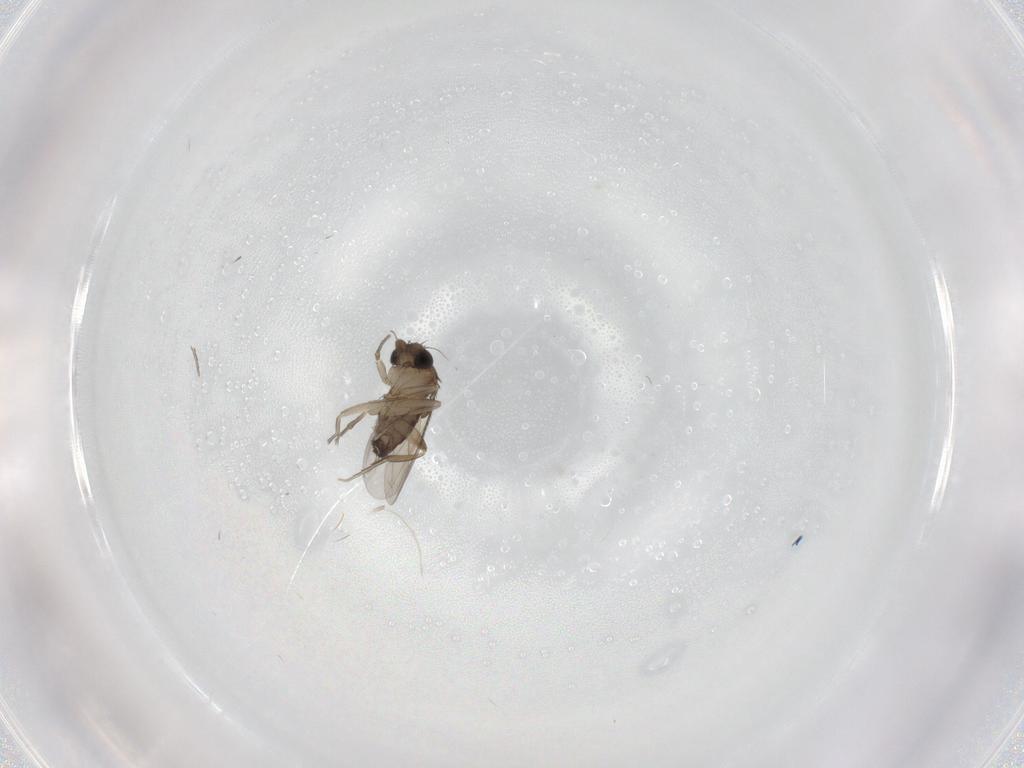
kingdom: Animalia
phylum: Arthropoda
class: Insecta
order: Diptera
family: Phoridae
